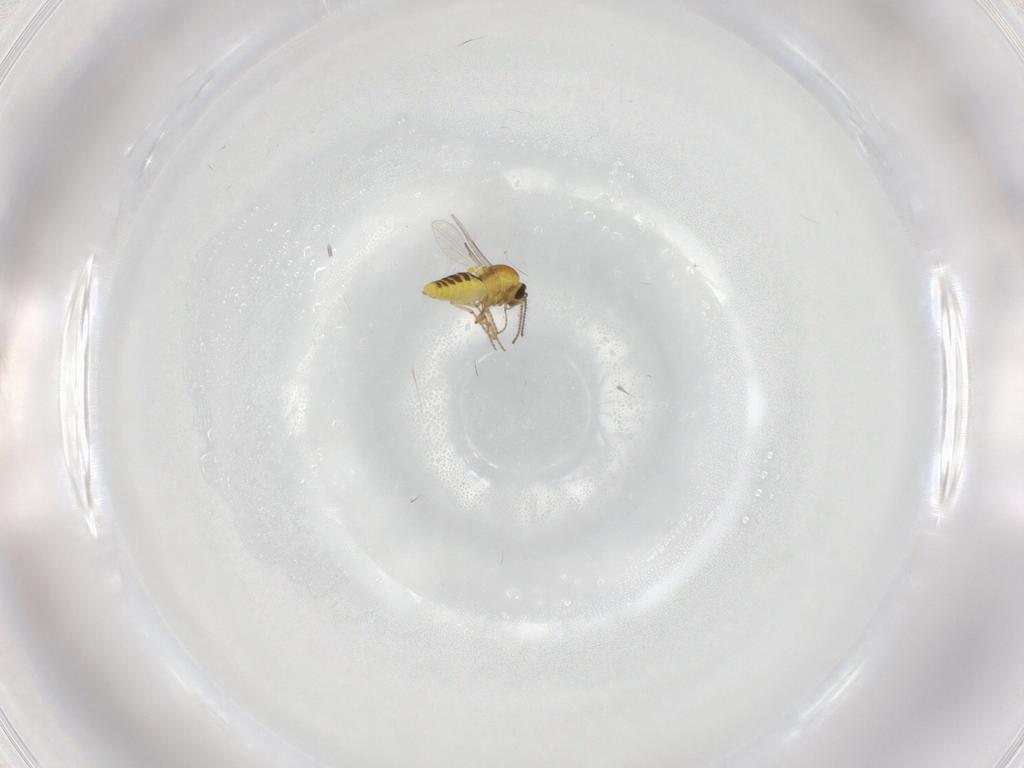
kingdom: Animalia
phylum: Arthropoda
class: Insecta
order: Diptera
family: Ceratopogonidae
